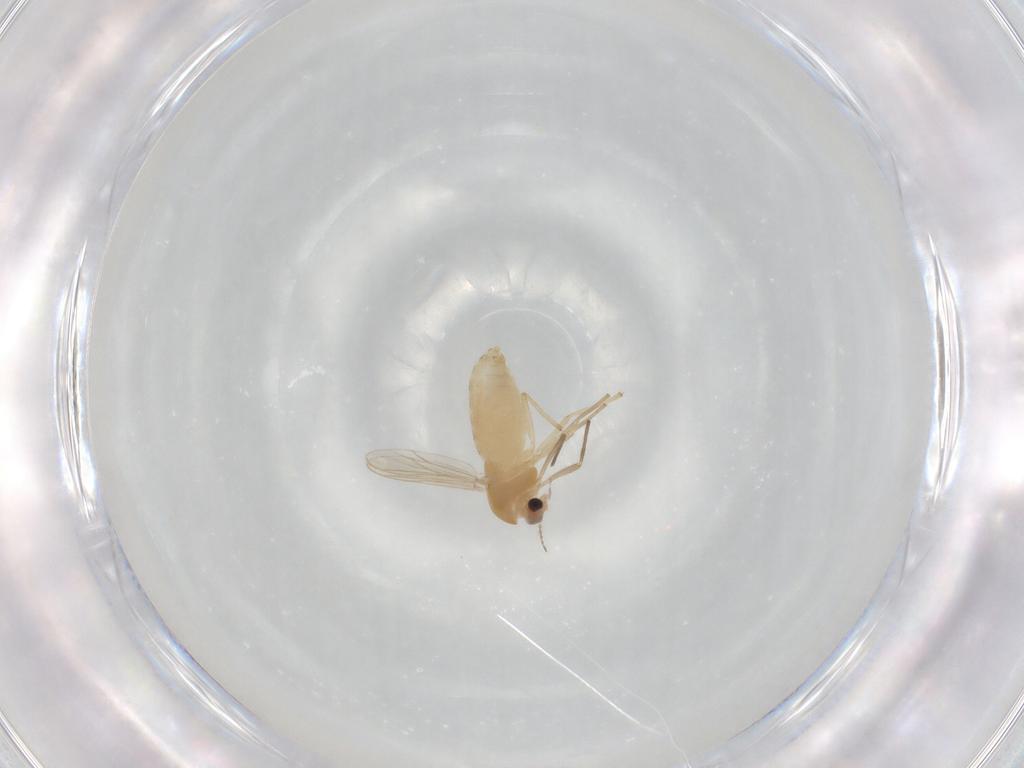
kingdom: Animalia
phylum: Arthropoda
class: Insecta
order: Diptera
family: Chironomidae
